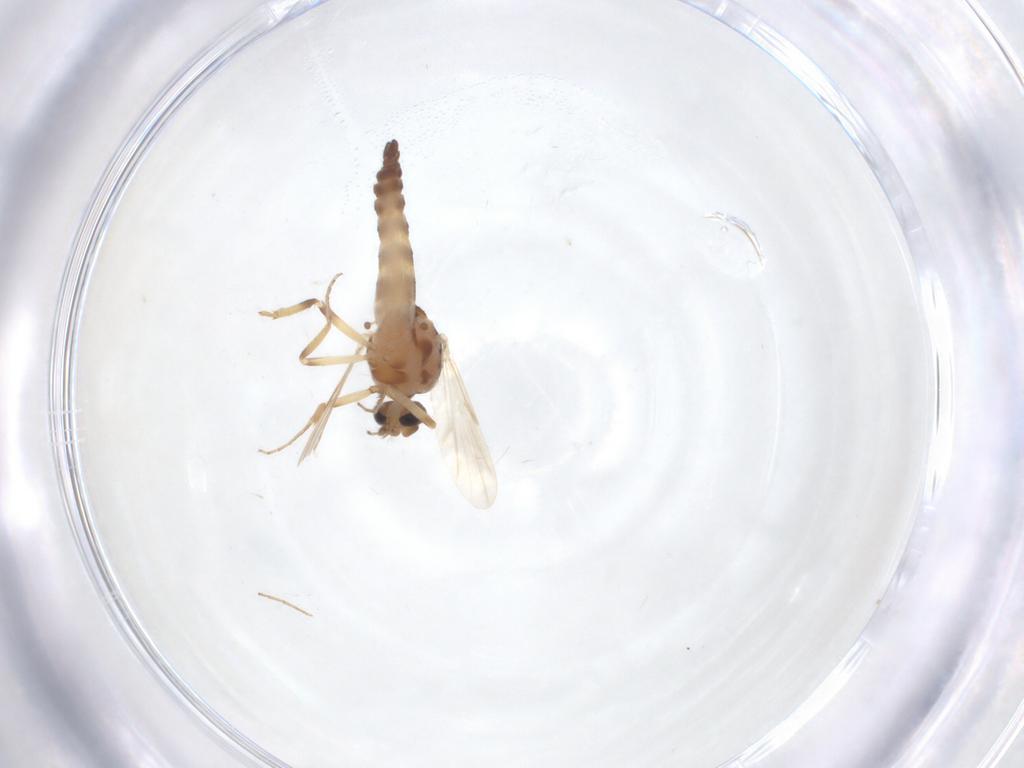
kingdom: Animalia
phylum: Arthropoda
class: Insecta
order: Diptera
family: Ceratopogonidae
